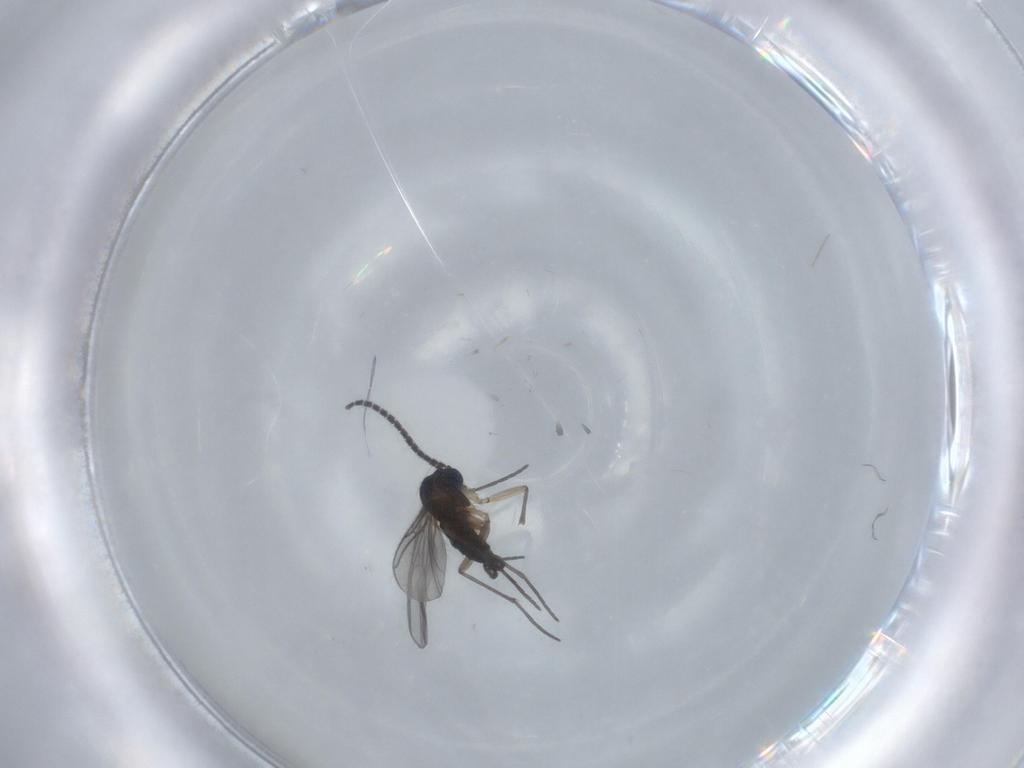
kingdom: Animalia
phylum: Arthropoda
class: Insecta
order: Diptera
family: Sciaridae
